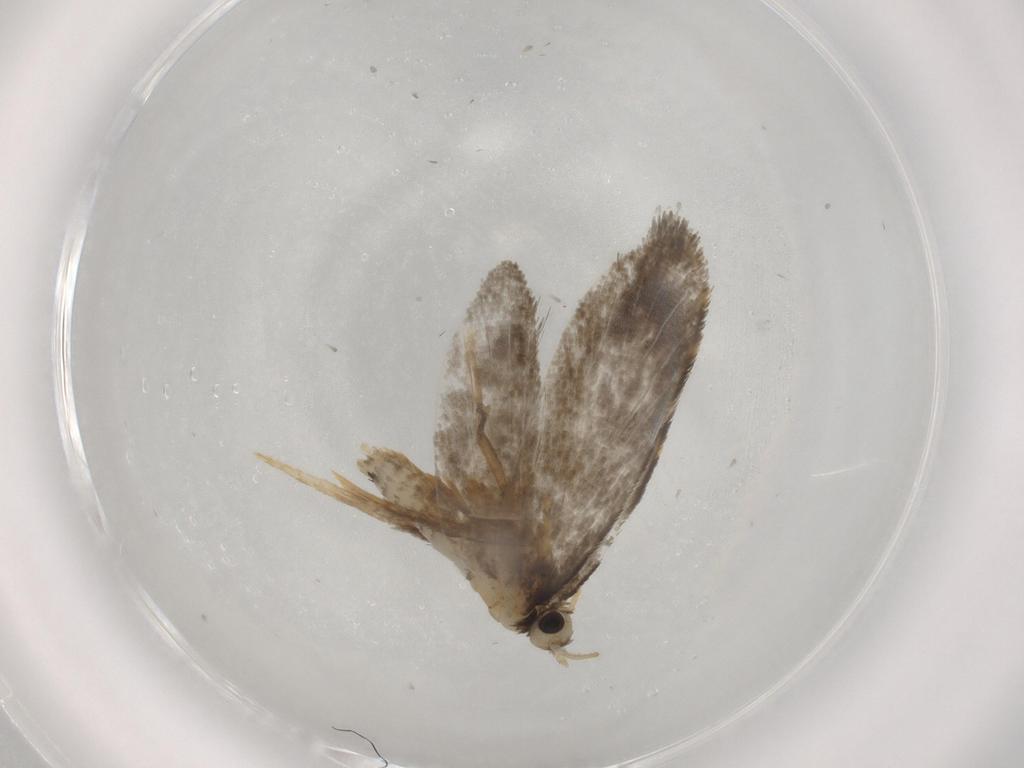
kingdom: Animalia
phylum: Arthropoda
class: Insecta
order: Lepidoptera
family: Psychidae
